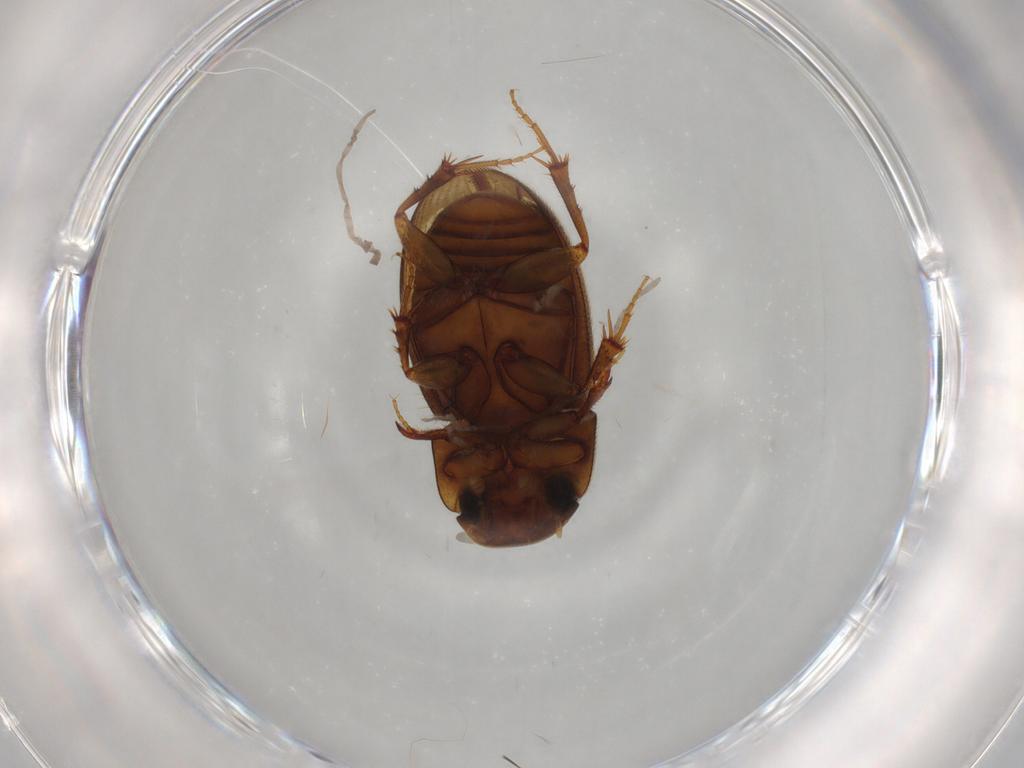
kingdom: Animalia
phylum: Arthropoda
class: Insecta
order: Coleoptera
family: Scarabaeidae
